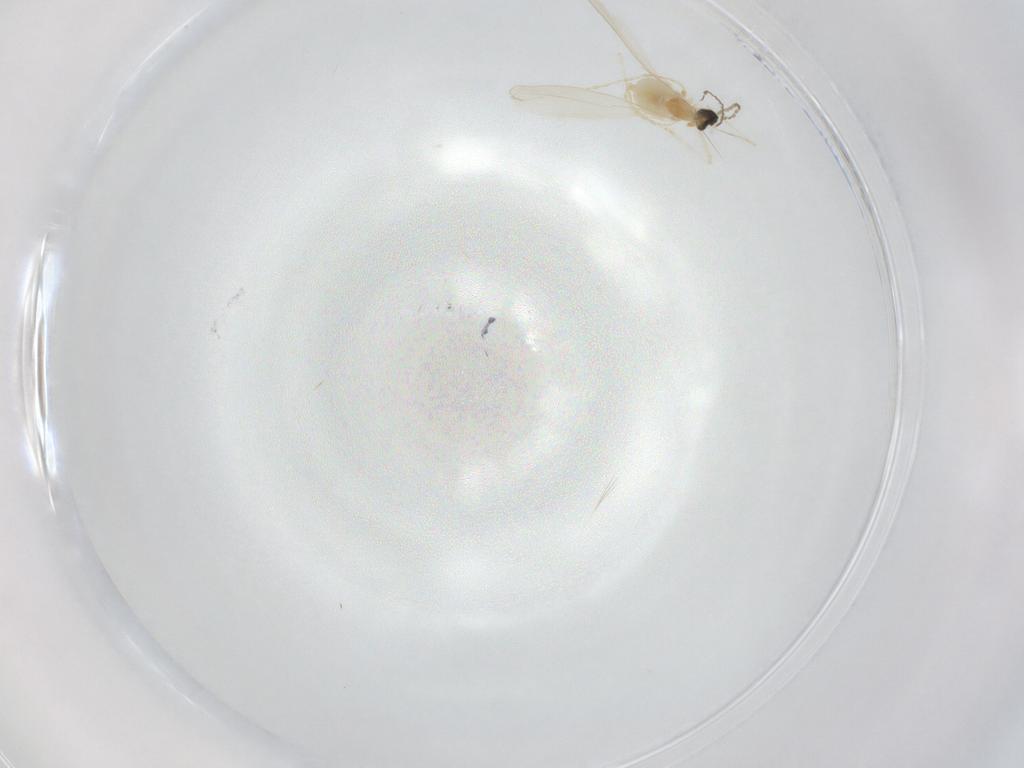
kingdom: Animalia
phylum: Arthropoda
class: Insecta
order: Diptera
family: Cecidomyiidae
